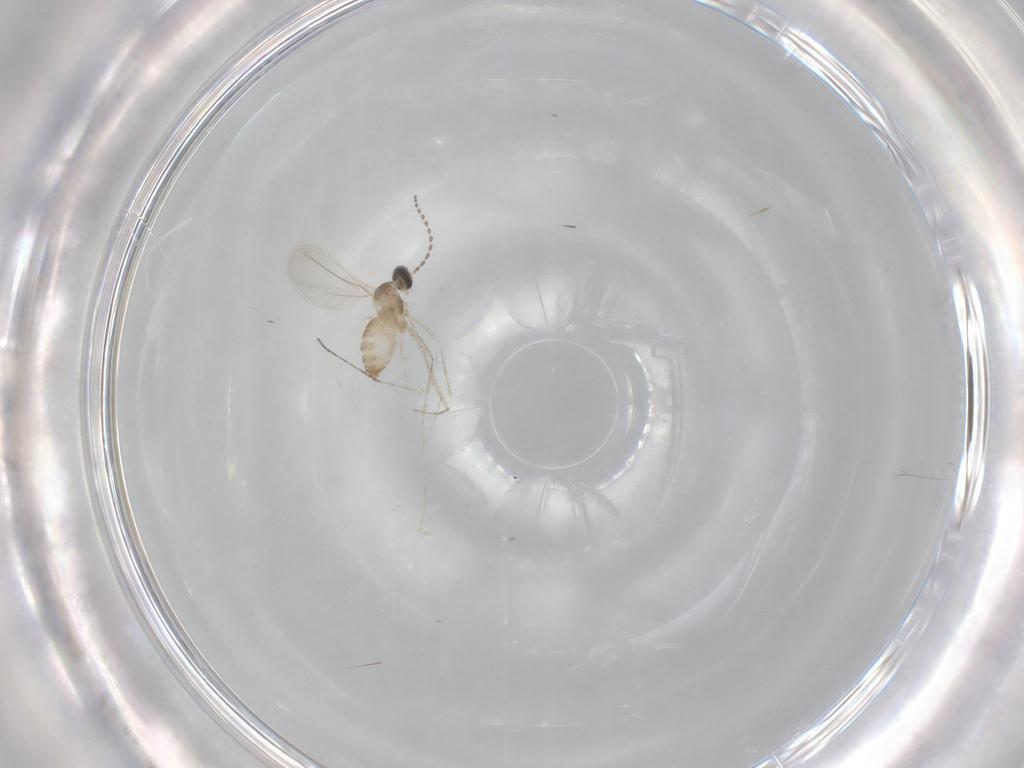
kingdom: Animalia
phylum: Arthropoda
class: Insecta
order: Diptera
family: Cecidomyiidae
